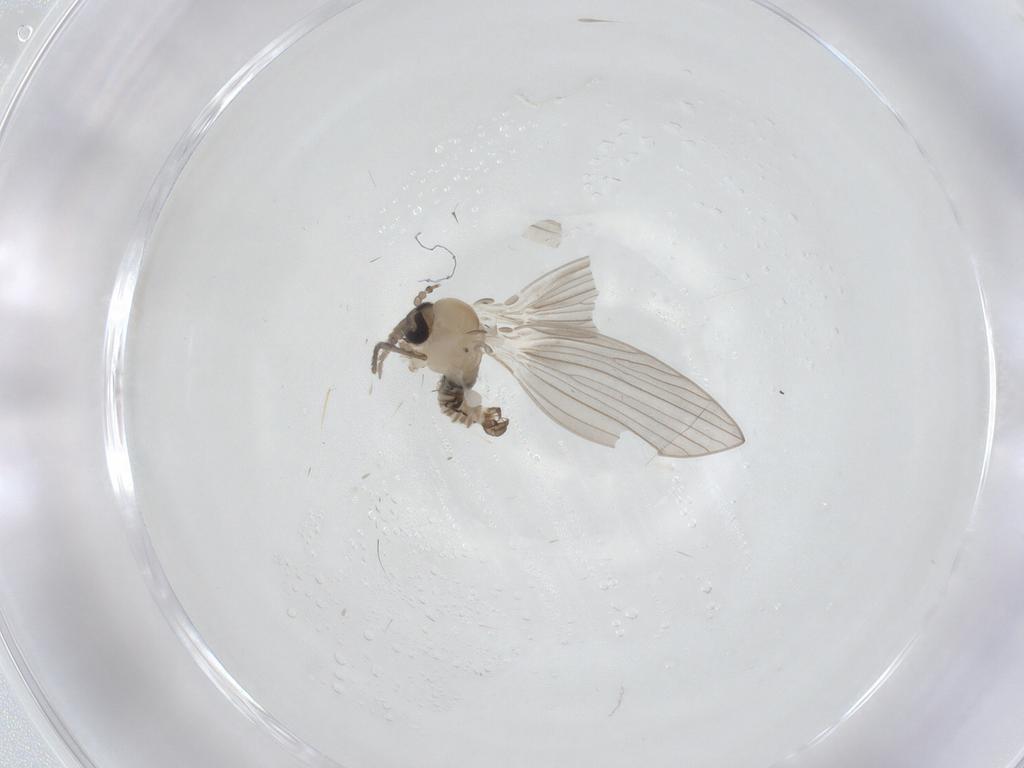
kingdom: Animalia
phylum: Arthropoda
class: Insecta
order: Diptera
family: Psychodidae
